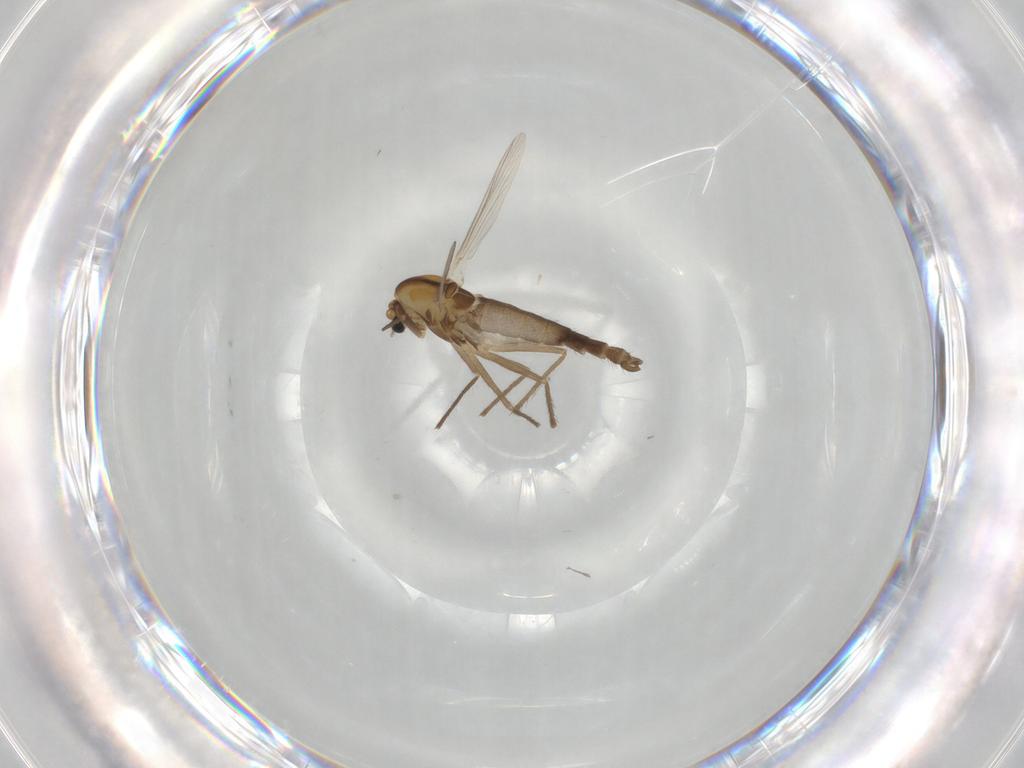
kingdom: Animalia
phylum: Arthropoda
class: Insecta
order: Diptera
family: Chironomidae
